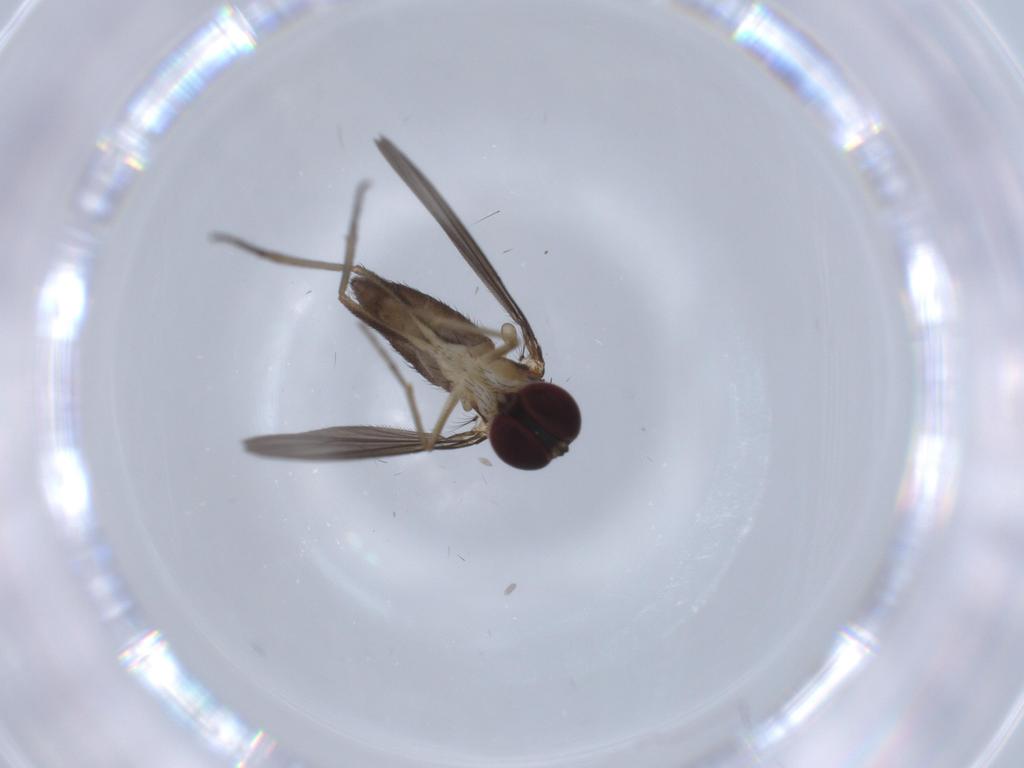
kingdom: Animalia
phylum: Arthropoda
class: Insecta
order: Diptera
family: Dolichopodidae
